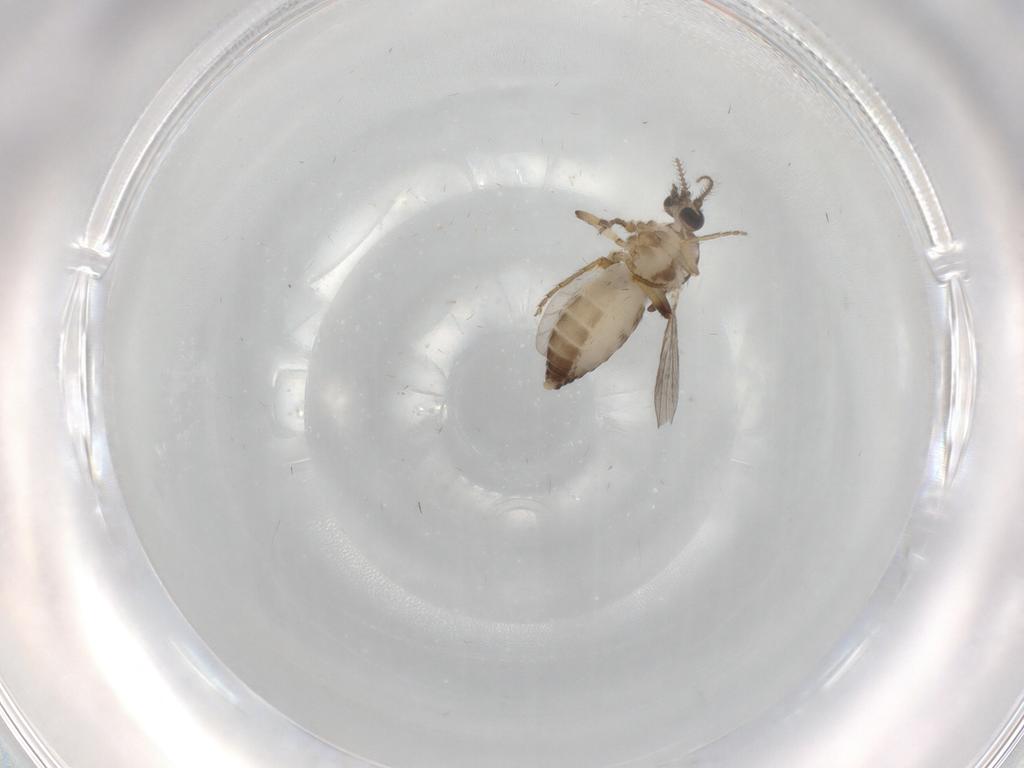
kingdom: Animalia
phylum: Arthropoda
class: Insecta
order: Diptera
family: Ceratopogonidae
